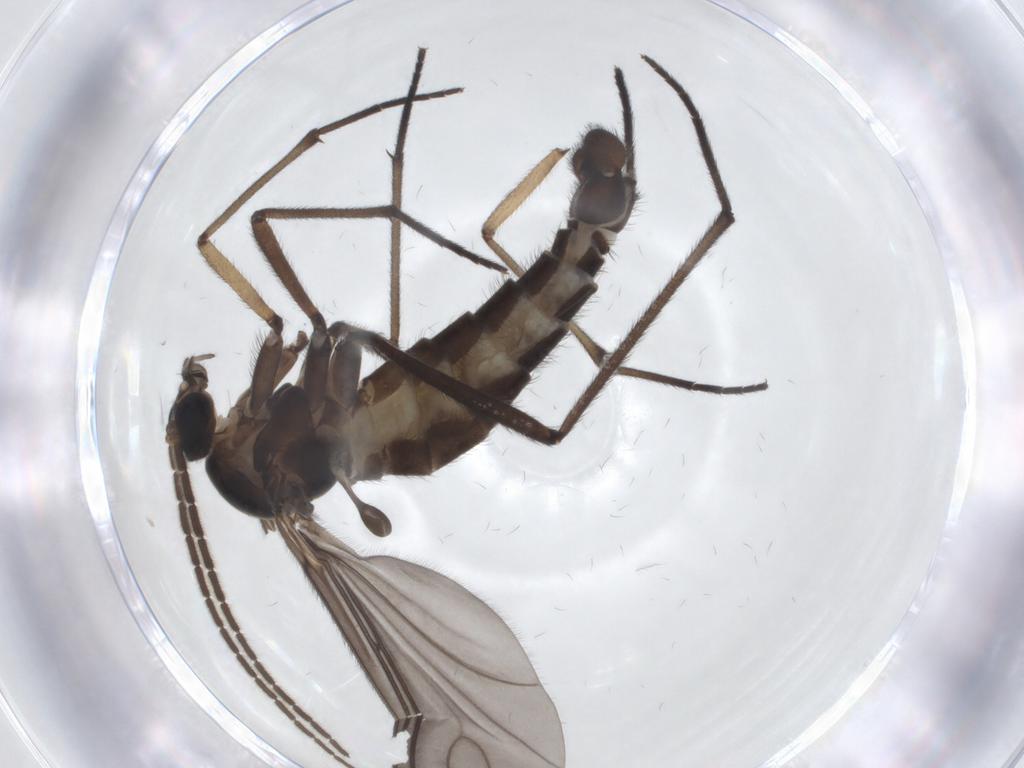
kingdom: Animalia
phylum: Arthropoda
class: Insecta
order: Diptera
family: Sciaridae
